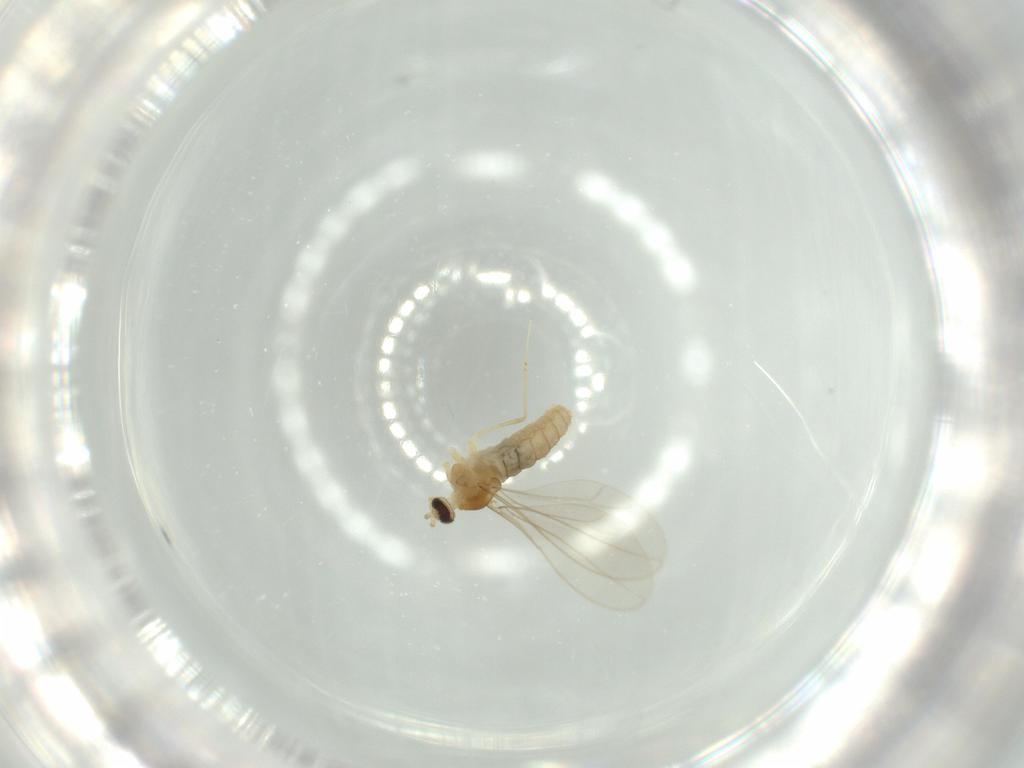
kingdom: Animalia
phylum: Arthropoda
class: Insecta
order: Diptera
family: Cecidomyiidae
